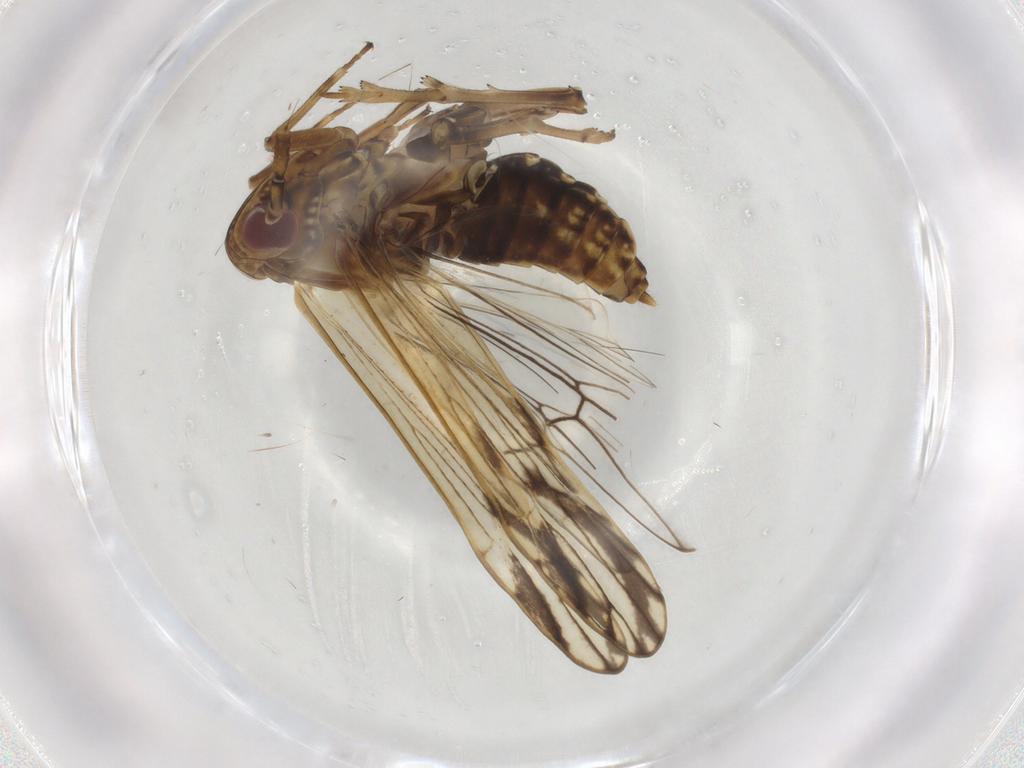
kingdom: Animalia
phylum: Arthropoda
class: Insecta
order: Hemiptera
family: Delphacidae
